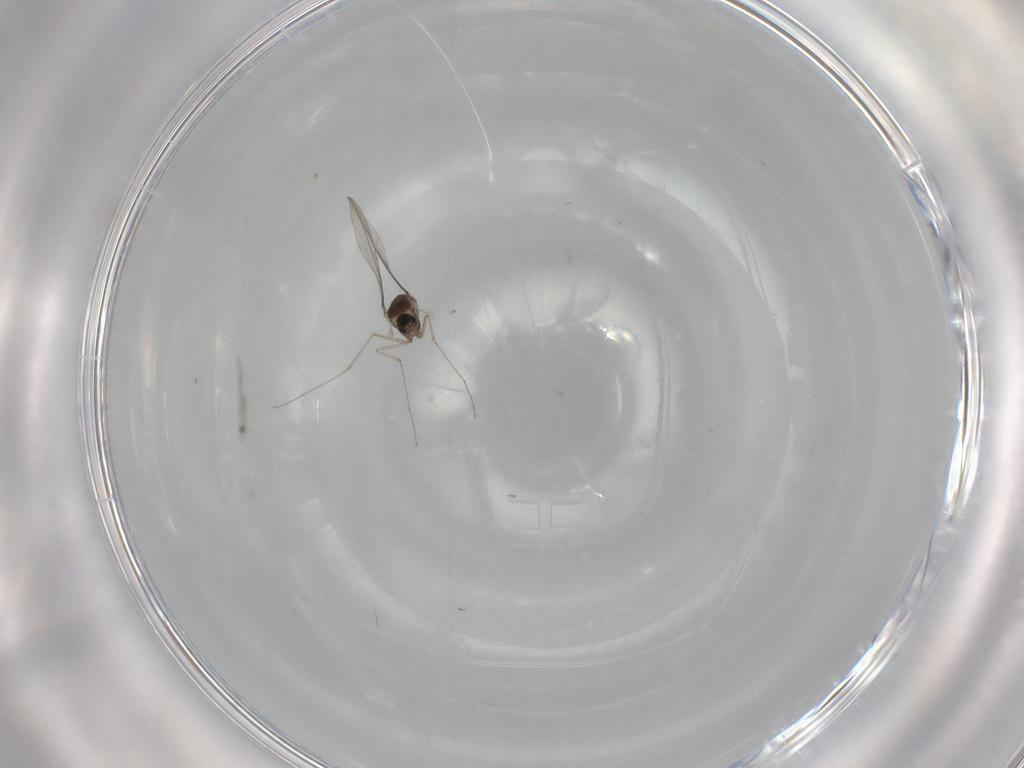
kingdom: Animalia
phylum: Arthropoda
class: Insecta
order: Diptera
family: Cecidomyiidae
